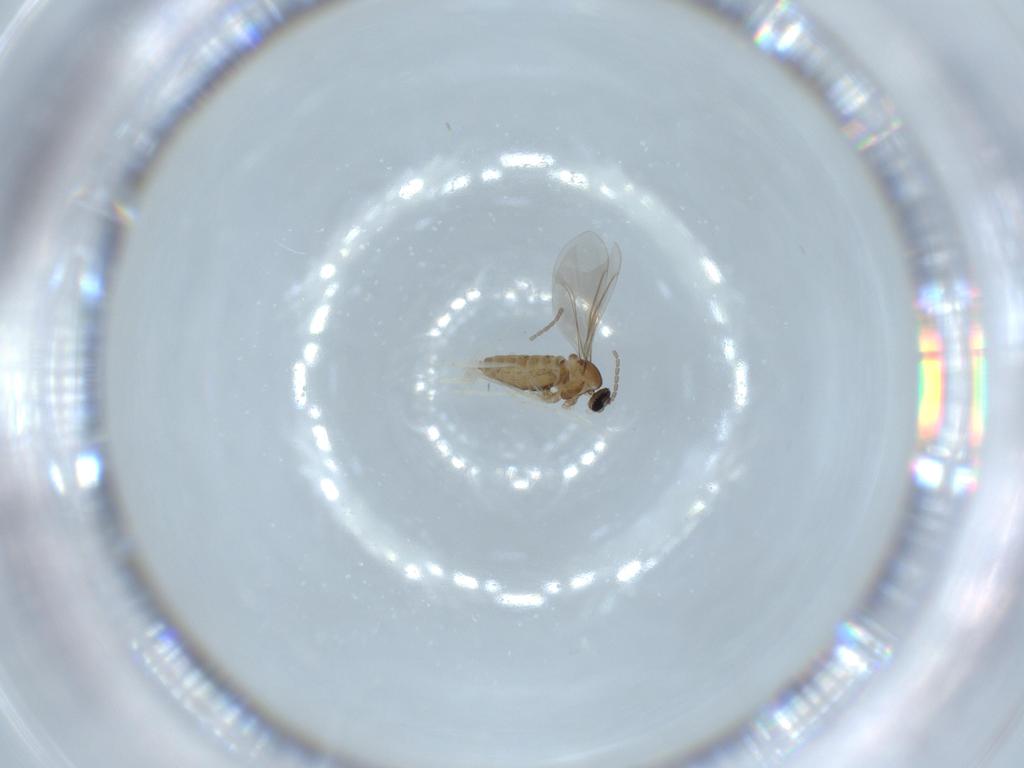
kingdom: Animalia
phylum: Arthropoda
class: Insecta
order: Diptera
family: Cecidomyiidae
